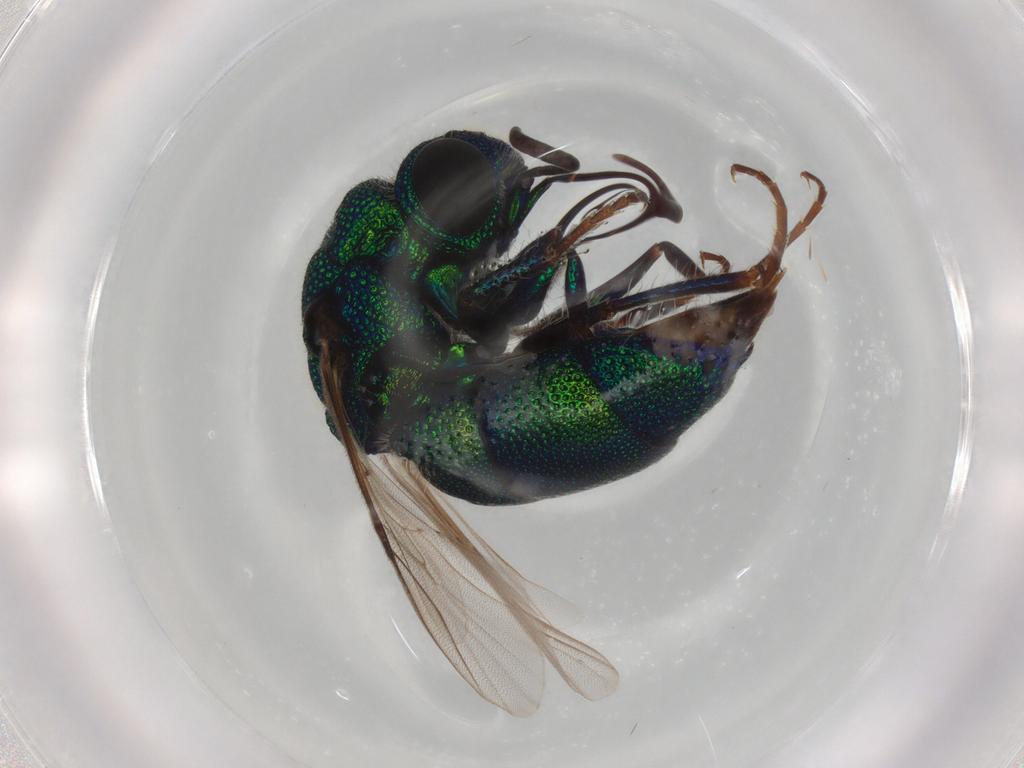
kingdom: Animalia
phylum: Arthropoda
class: Insecta
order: Hymenoptera
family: Chrysididae
